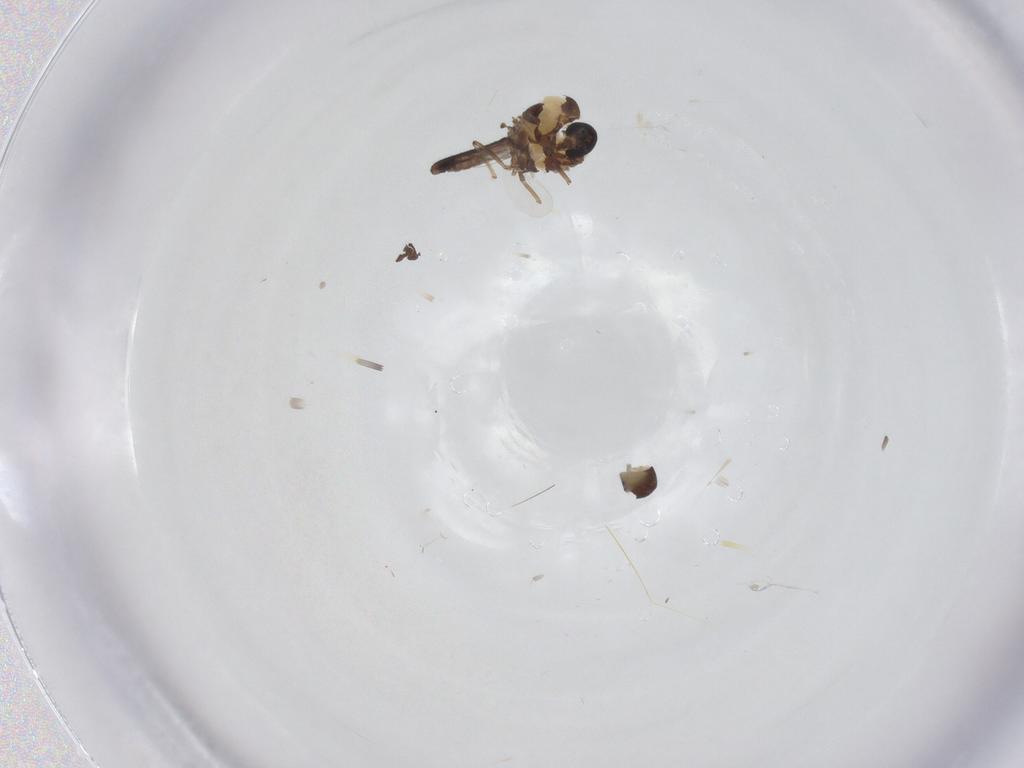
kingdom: Animalia
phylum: Arthropoda
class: Insecta
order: Diptera
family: Ceratopogonidae
